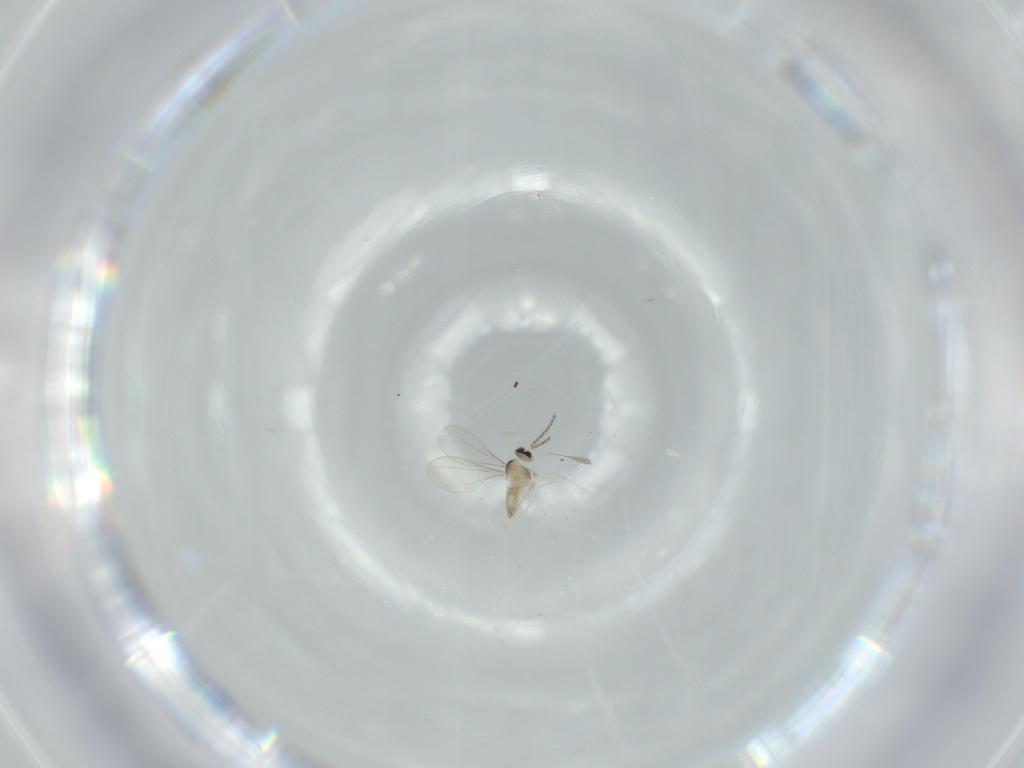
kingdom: Animalia
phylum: Arthropoda
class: Insecta
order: Diptera
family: Cecidomyiidae
